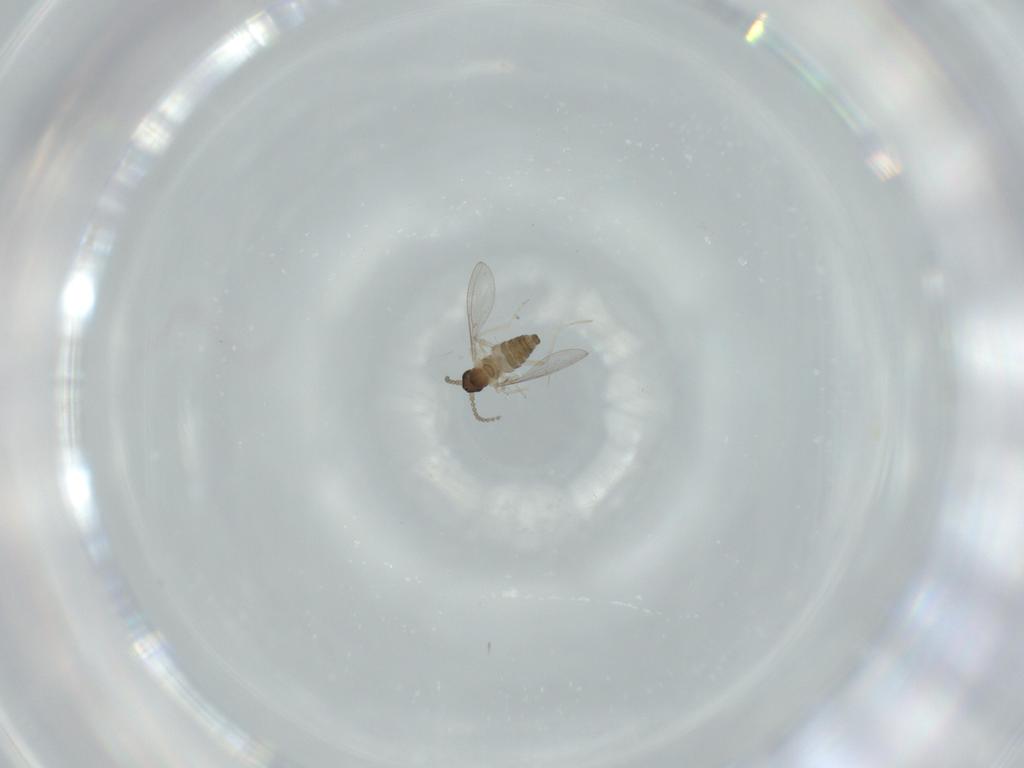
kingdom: Animalia
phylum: Arthropoda
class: Insecta
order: Diptera
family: Cecidomyiidae
